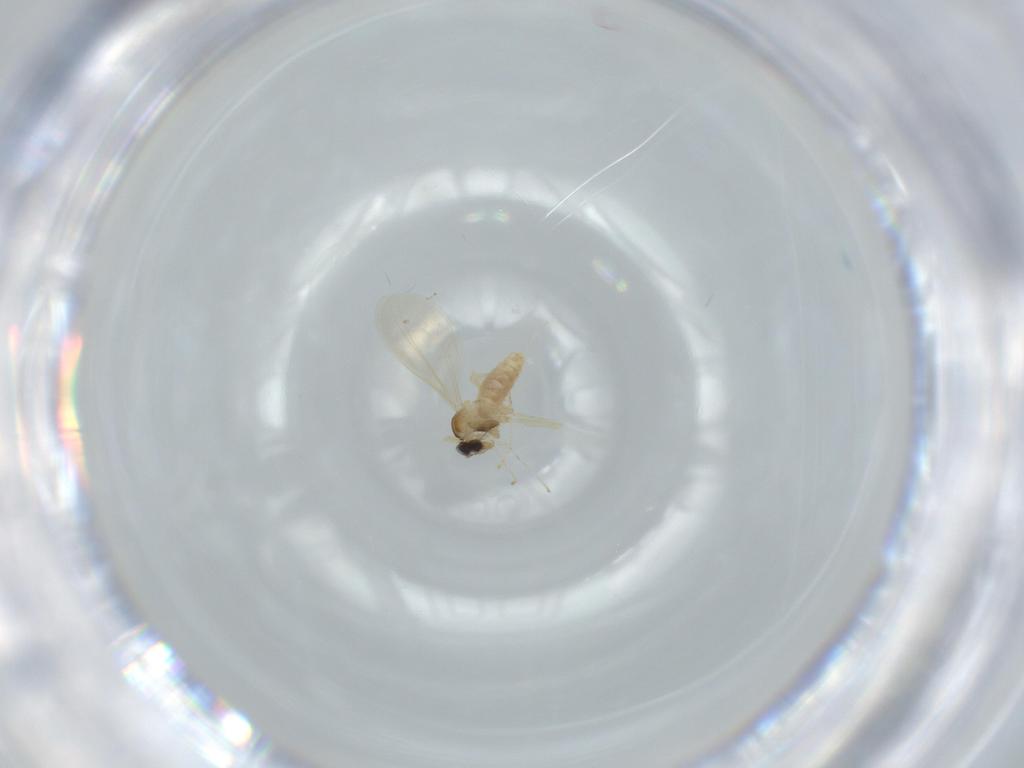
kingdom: Animalia
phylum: Arthropoda
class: Insecta
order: Diptera
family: Cecidomyiidae
